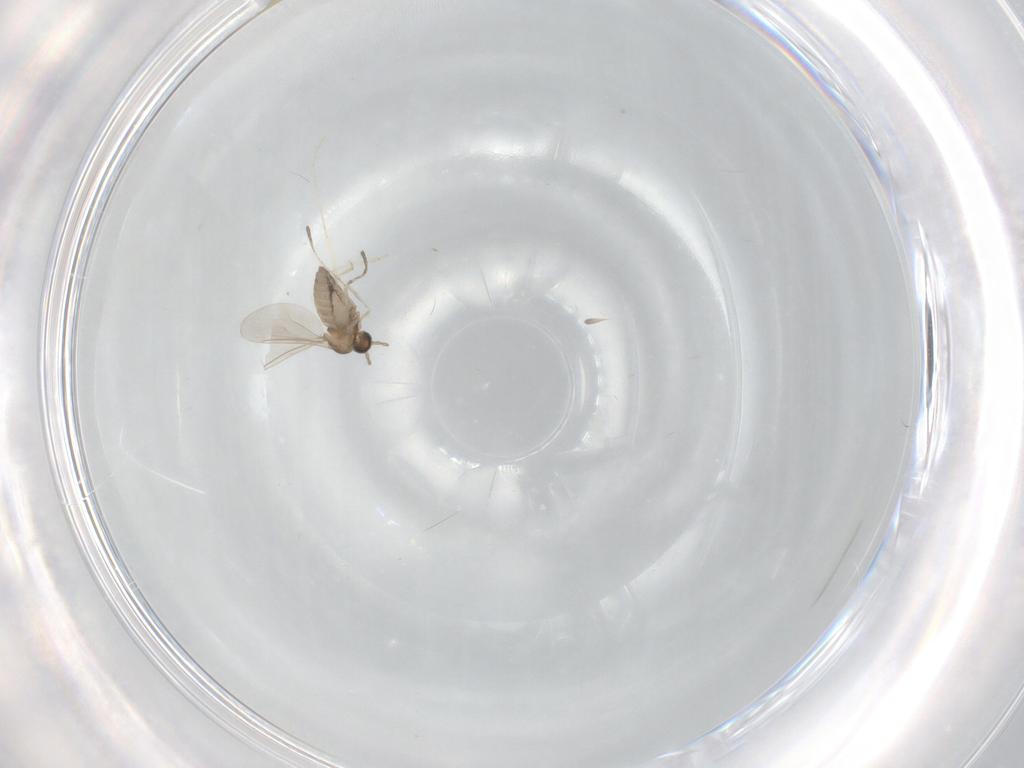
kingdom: Animalia
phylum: Arthropoda
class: Insecta
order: Diptera
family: Cecidomyiidae
